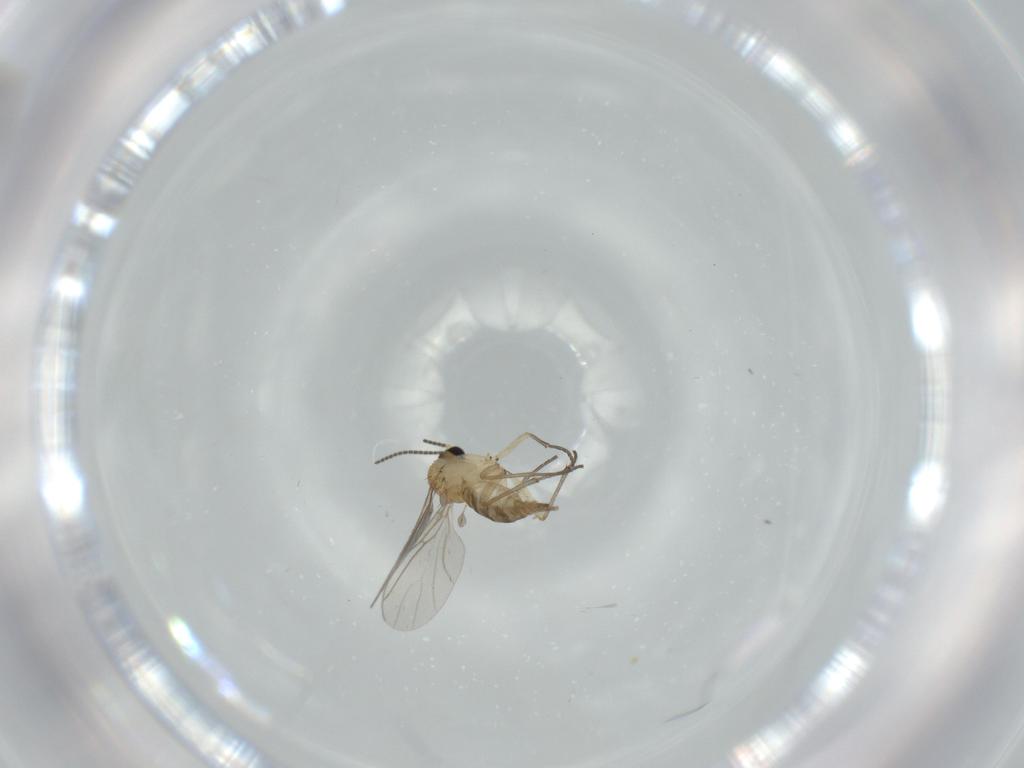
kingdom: Animalia
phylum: Arthropoda
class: Insecta
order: Diptera
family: Sciaridae
